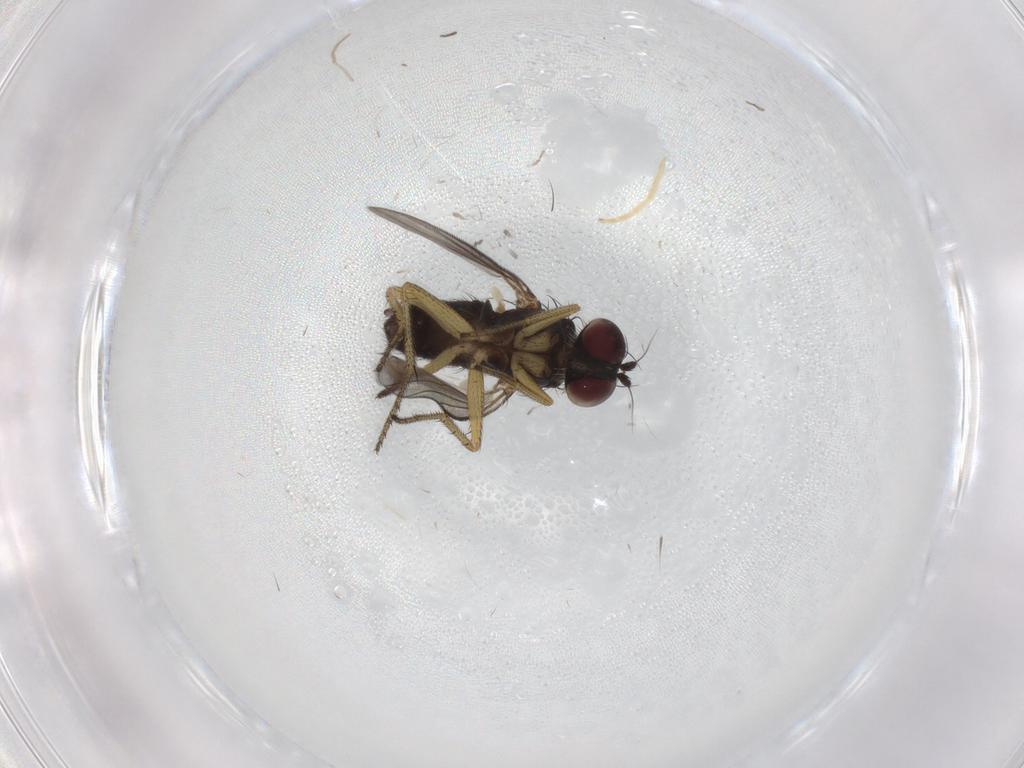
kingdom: Animalia
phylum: Arthropoda
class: Insecta
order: Diptera
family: Dolichopodidae
